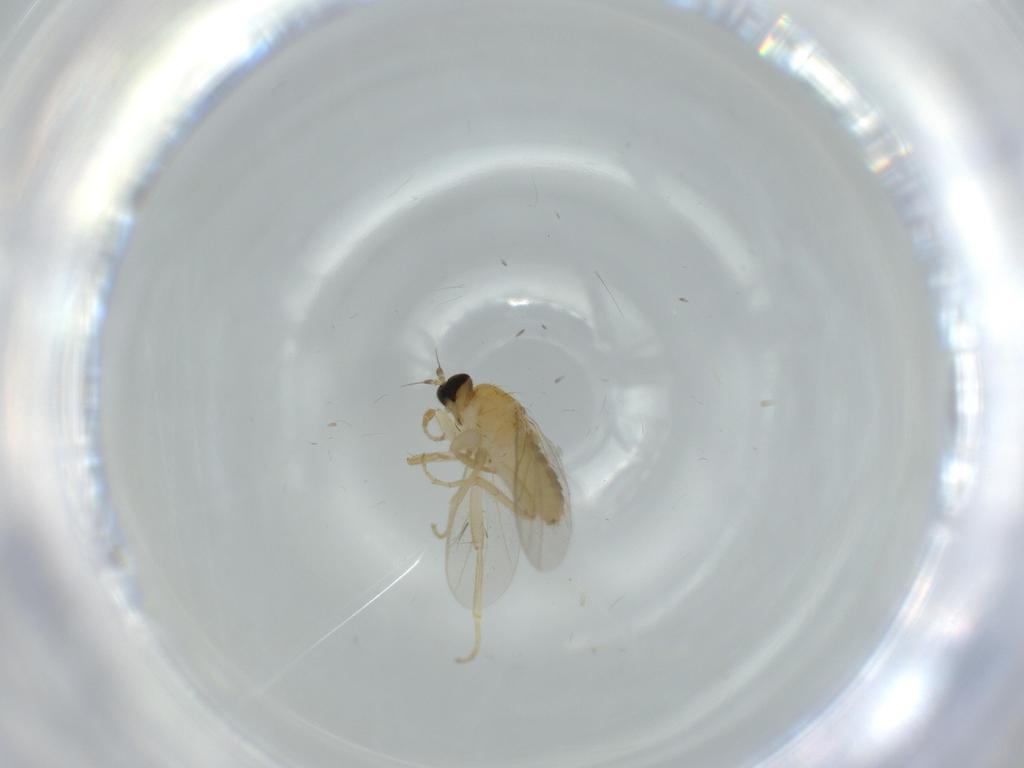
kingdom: Animalia
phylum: Arthropoda
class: Insecta
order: Diptera
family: Hybotidae
